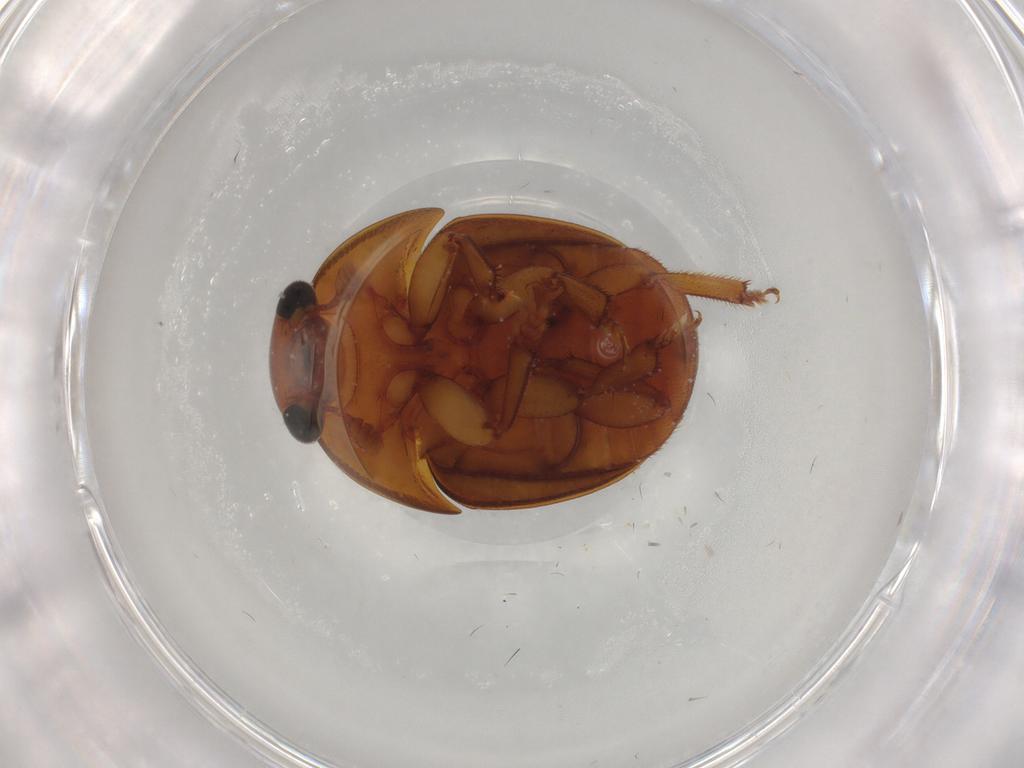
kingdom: Animalia
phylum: Arthropoda
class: Insecta
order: Coleoptera
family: Nitidulidae
